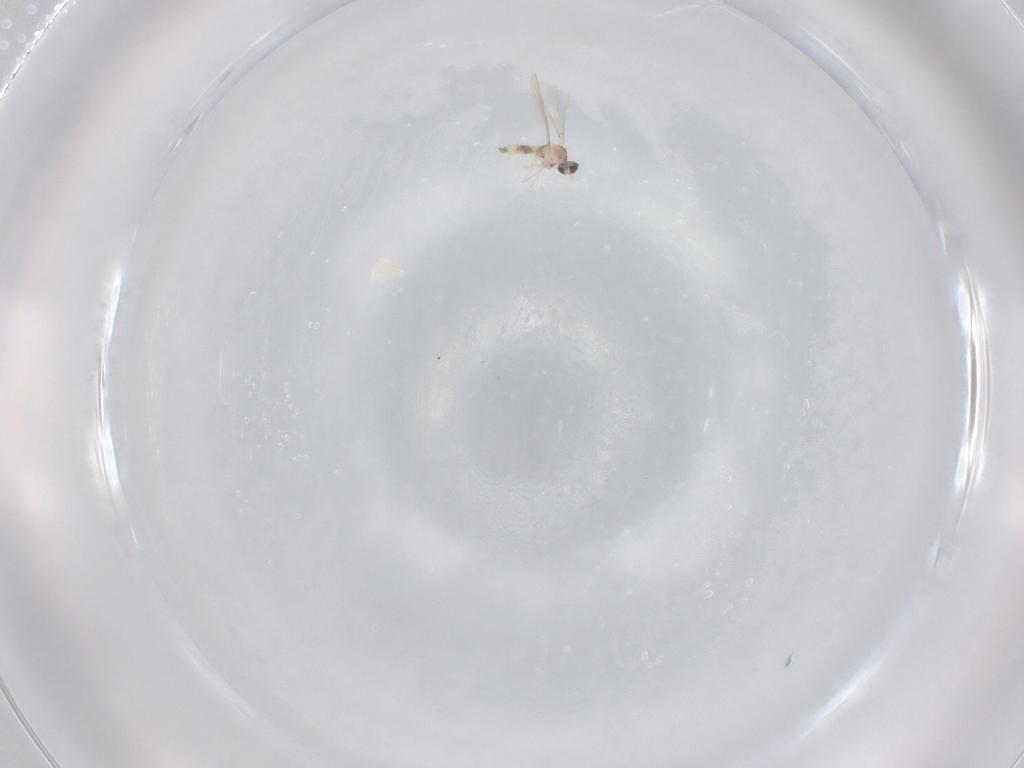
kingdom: Animalia
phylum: Arthropoda
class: Insecta
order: Diptera
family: Cecidomyiidae
